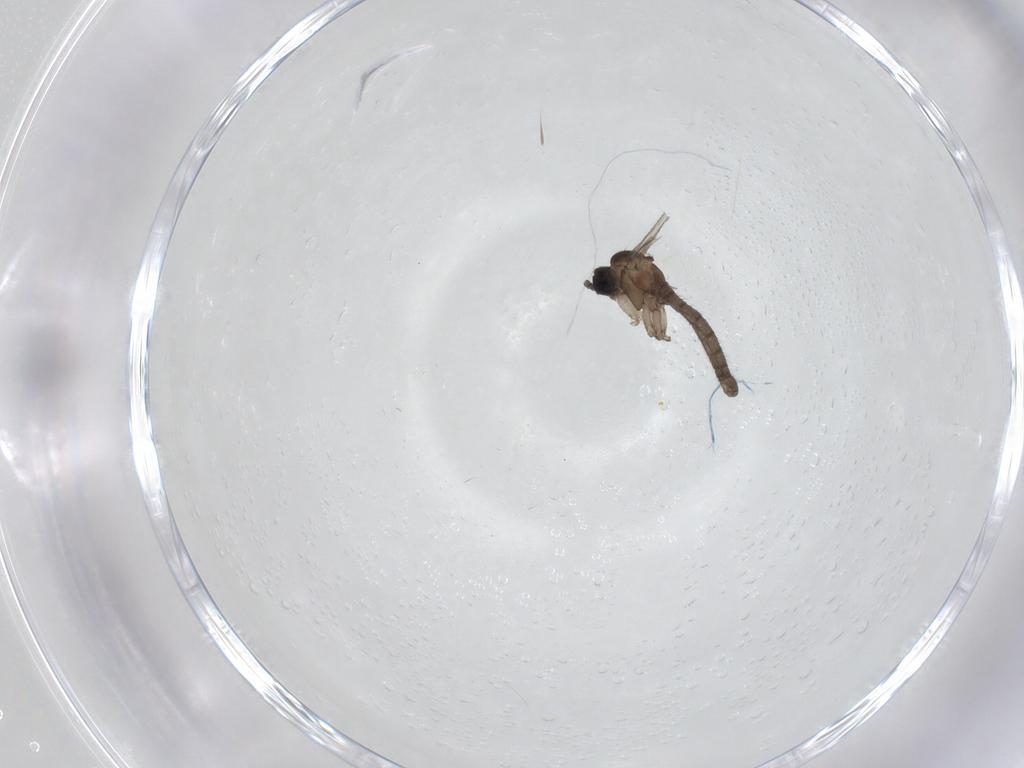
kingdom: Animalia
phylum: Arthropoda
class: Insecta
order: Diptera
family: Sciaridae
